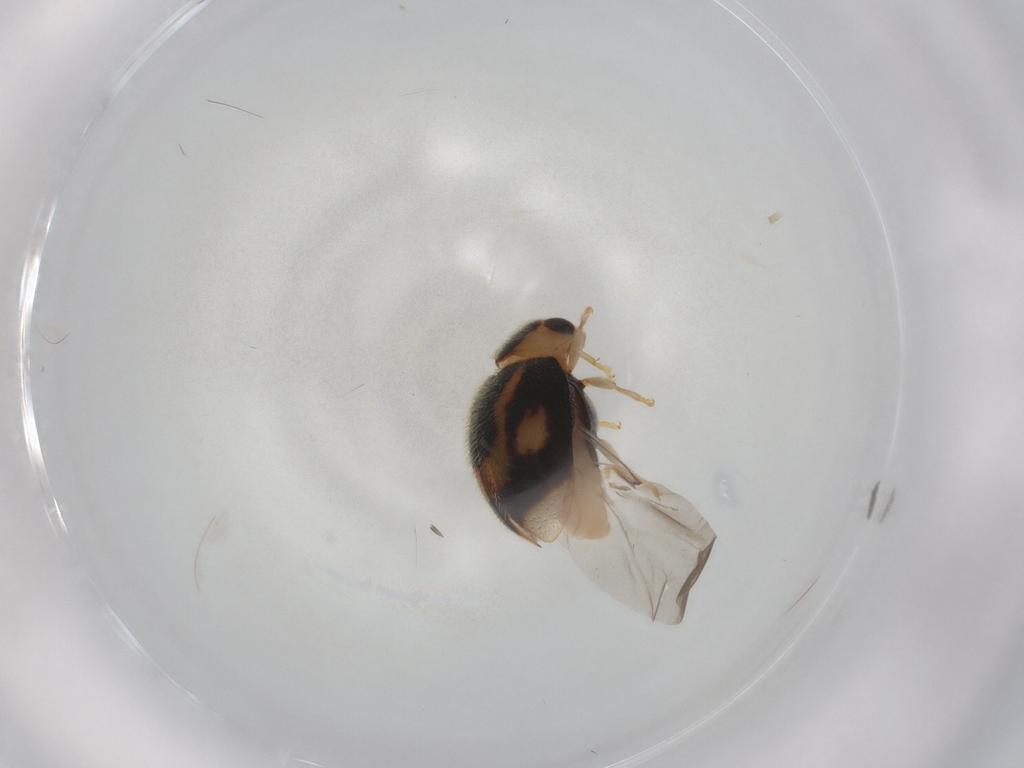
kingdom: Animalia
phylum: Arthropoda
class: Insecta
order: Coleoptera
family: Coccinellidae
